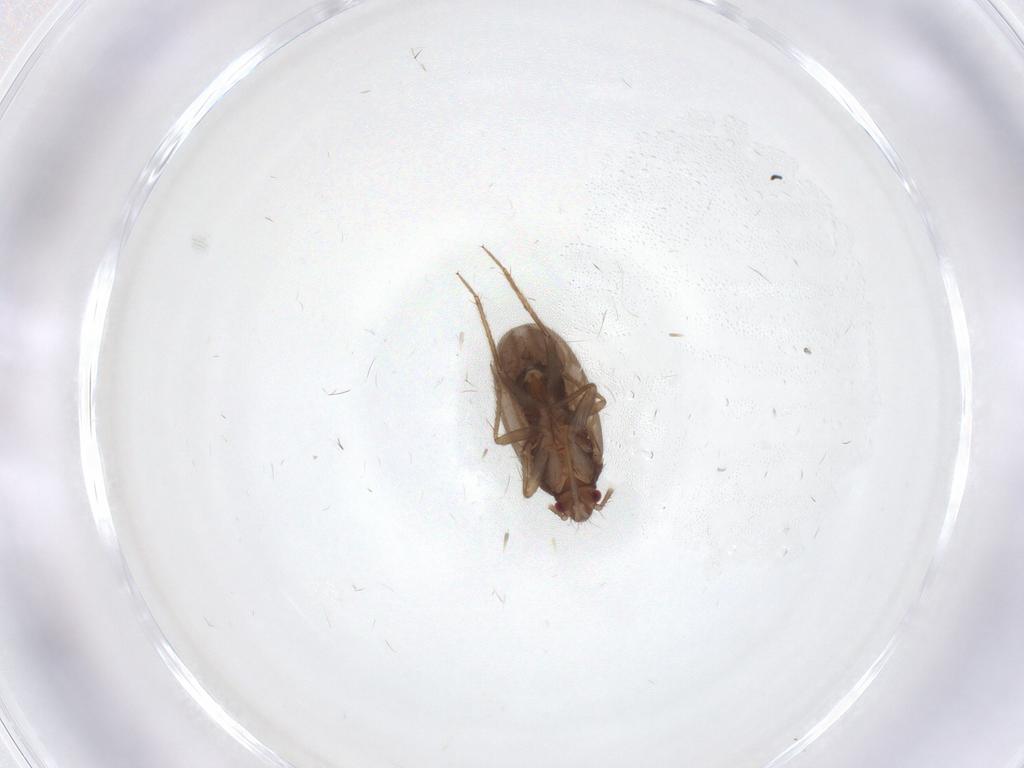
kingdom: Animalia
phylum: Arthropoda
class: Insecta
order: Hemiptera
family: Ceratocombidae
